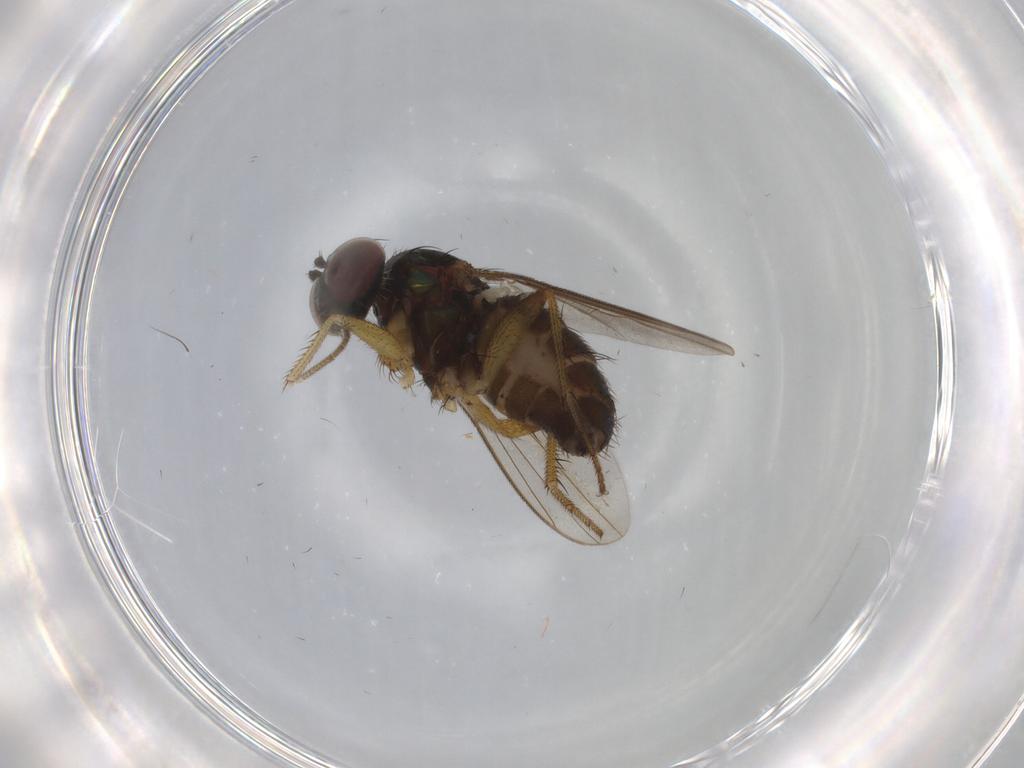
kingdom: Animalia
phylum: Arthropoda
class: Insecta
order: Diptera
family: Dolichopodidae
